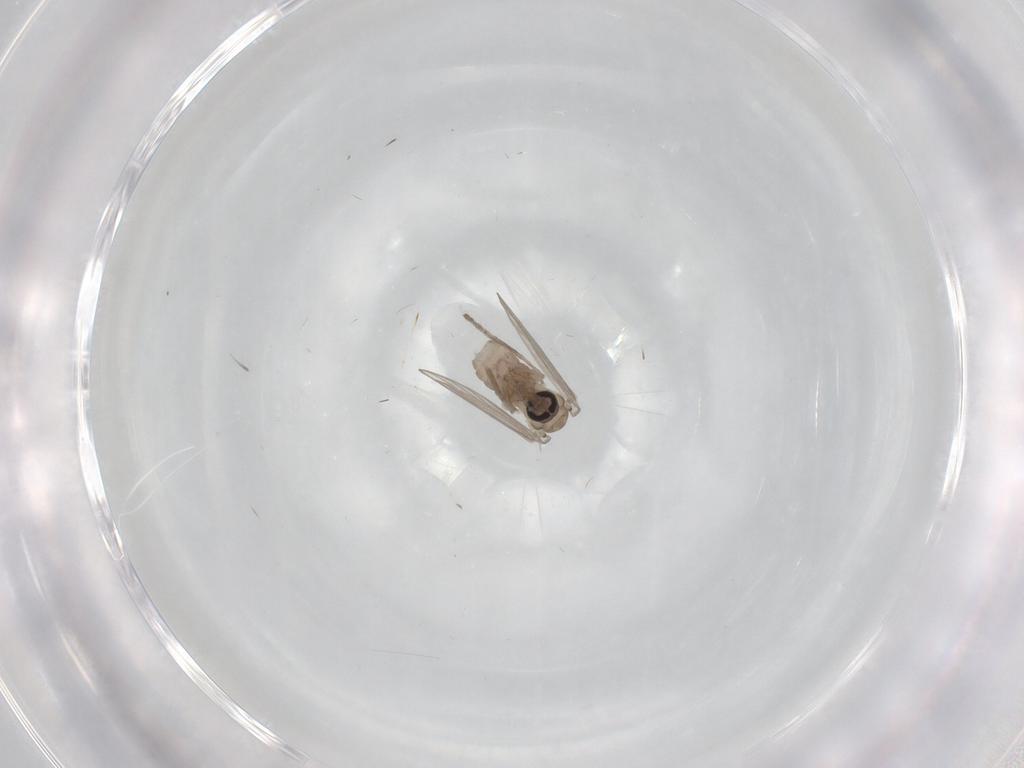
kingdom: Animalia
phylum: Arthropoda
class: Insecta
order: Diptera
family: Psychodidae
